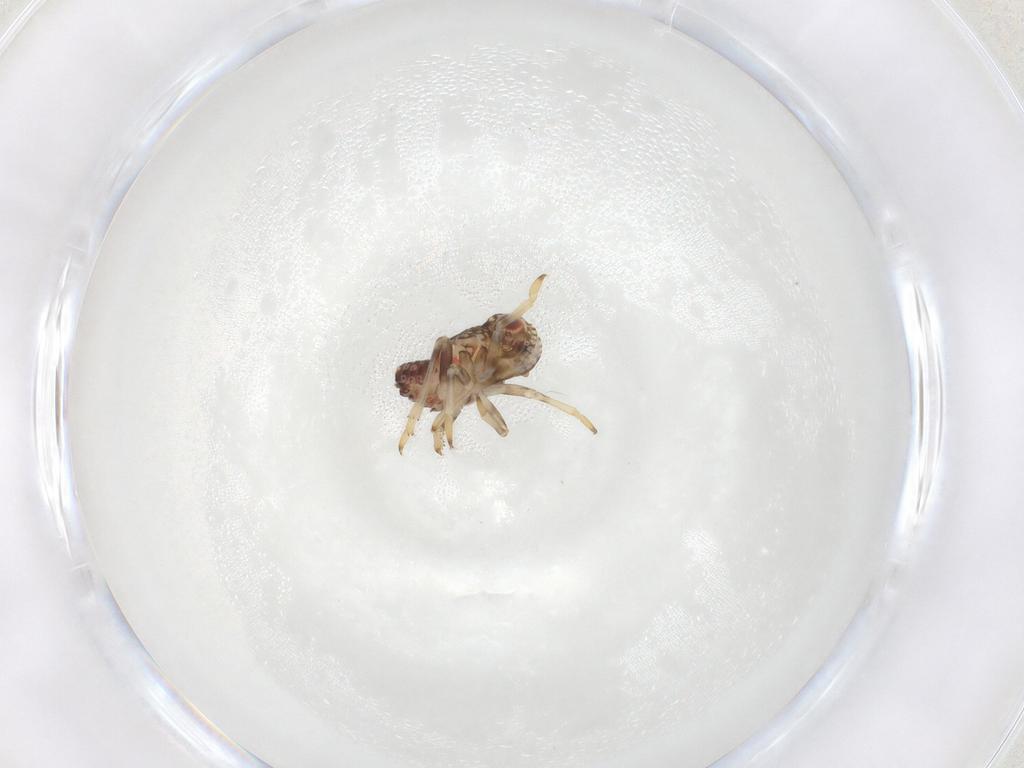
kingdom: Animalia
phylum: Arthropoda
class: Insecta
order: Hemiptera
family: Tropiduchidae
